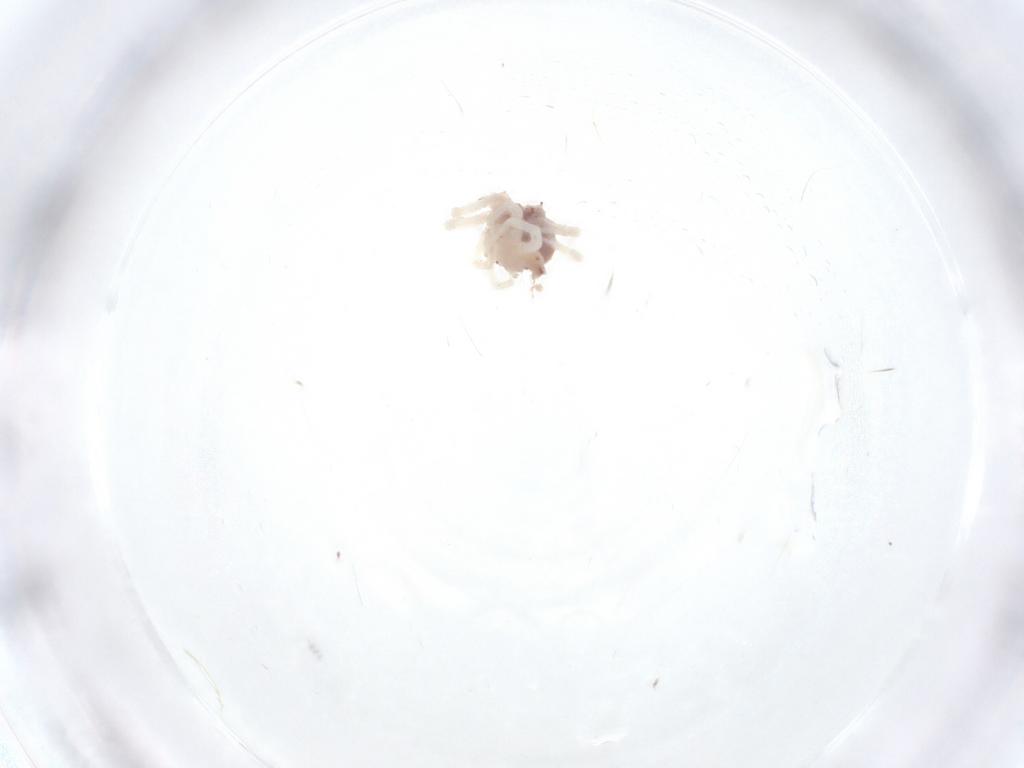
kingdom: Animalia
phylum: Arthropoda
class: Arachnida
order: Trombidiformes
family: Anystidae
